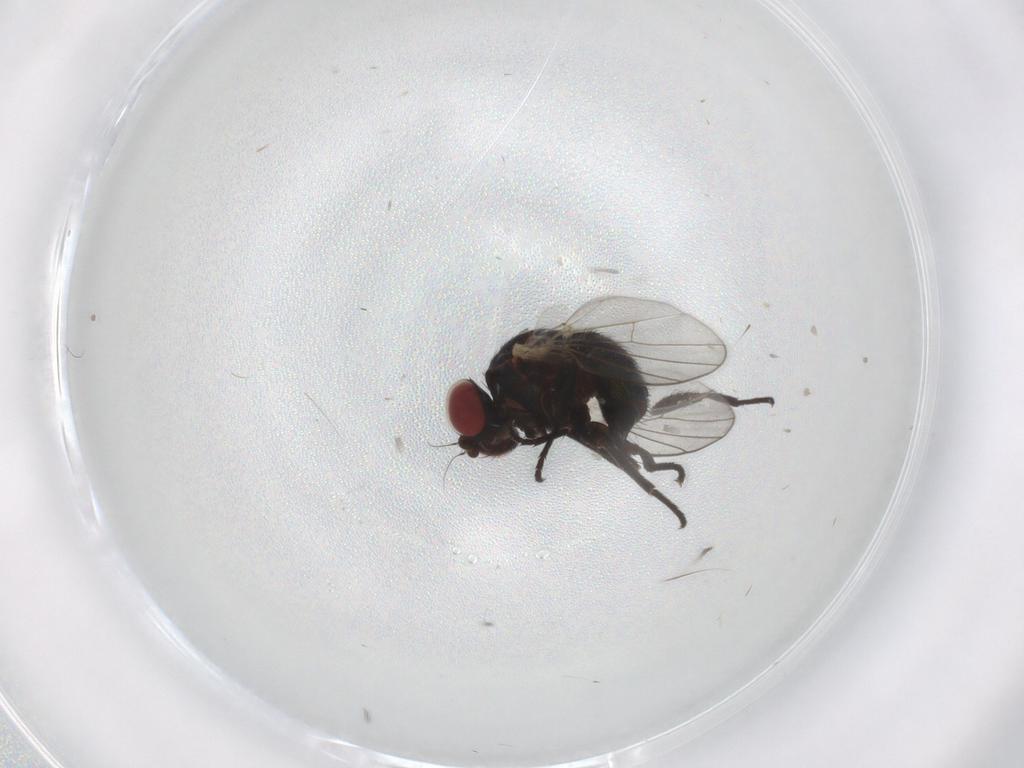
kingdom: Animalia
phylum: Arthropoda
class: Insecta
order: Diptera
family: Agromyzidae
